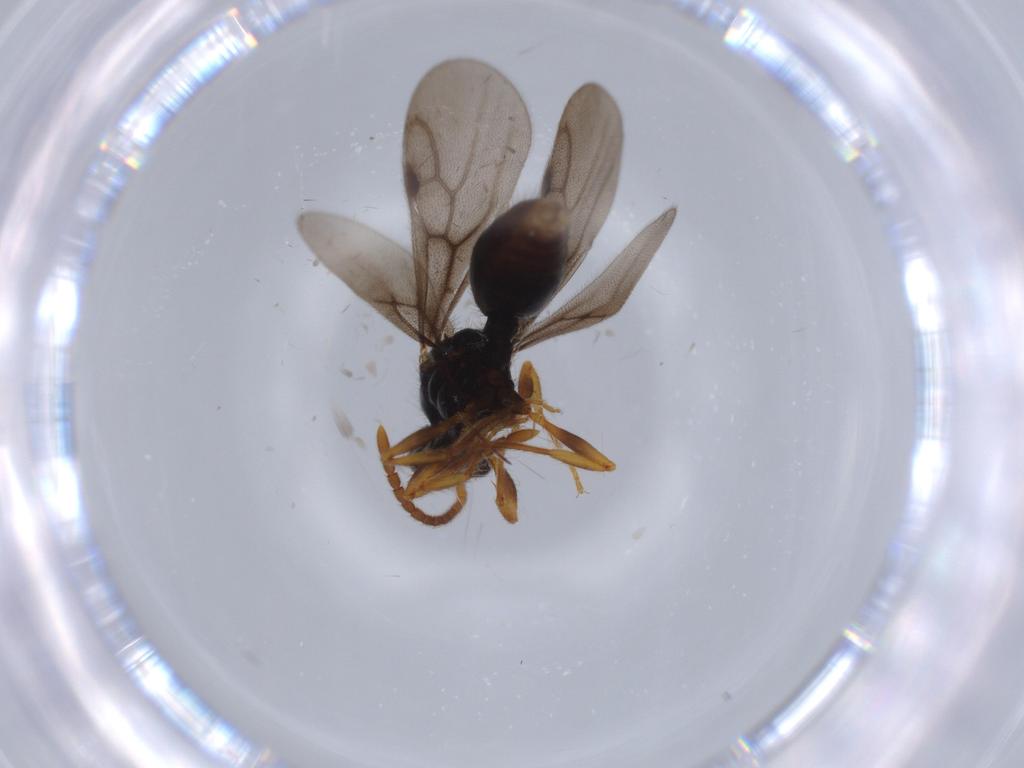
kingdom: Animalia
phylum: Arthropoda
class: Insecta
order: Hymenoptera
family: Formicidae
